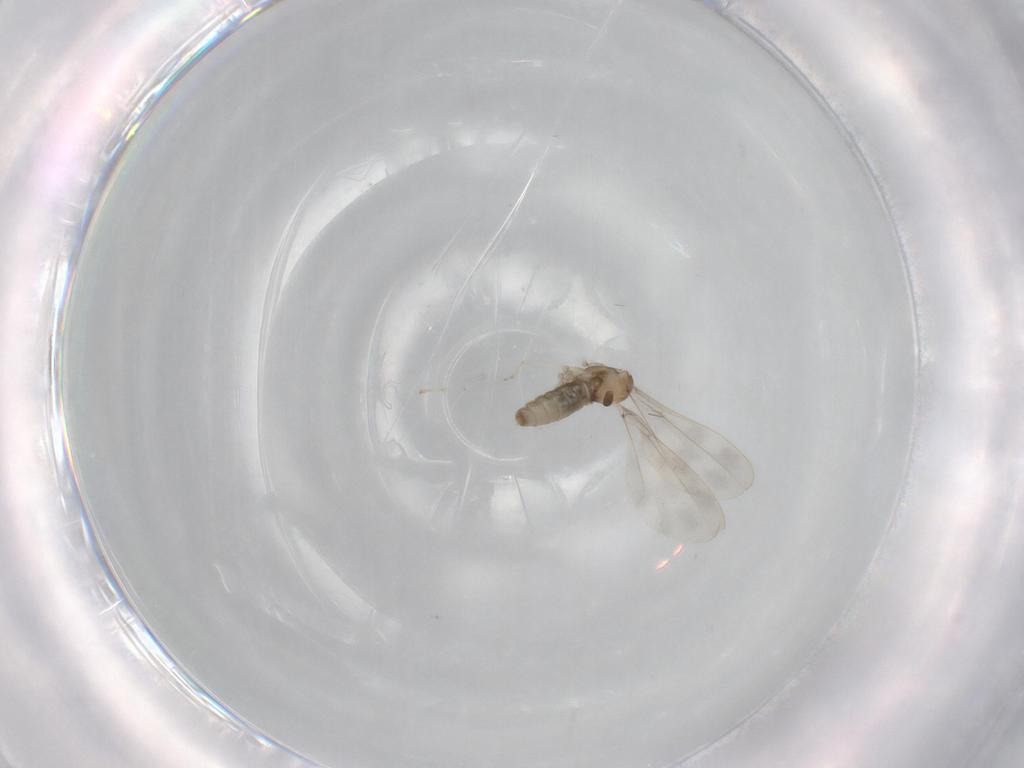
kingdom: Animalia
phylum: Arthropoda
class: Insecta
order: Diptera
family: Cecidomyiidae
